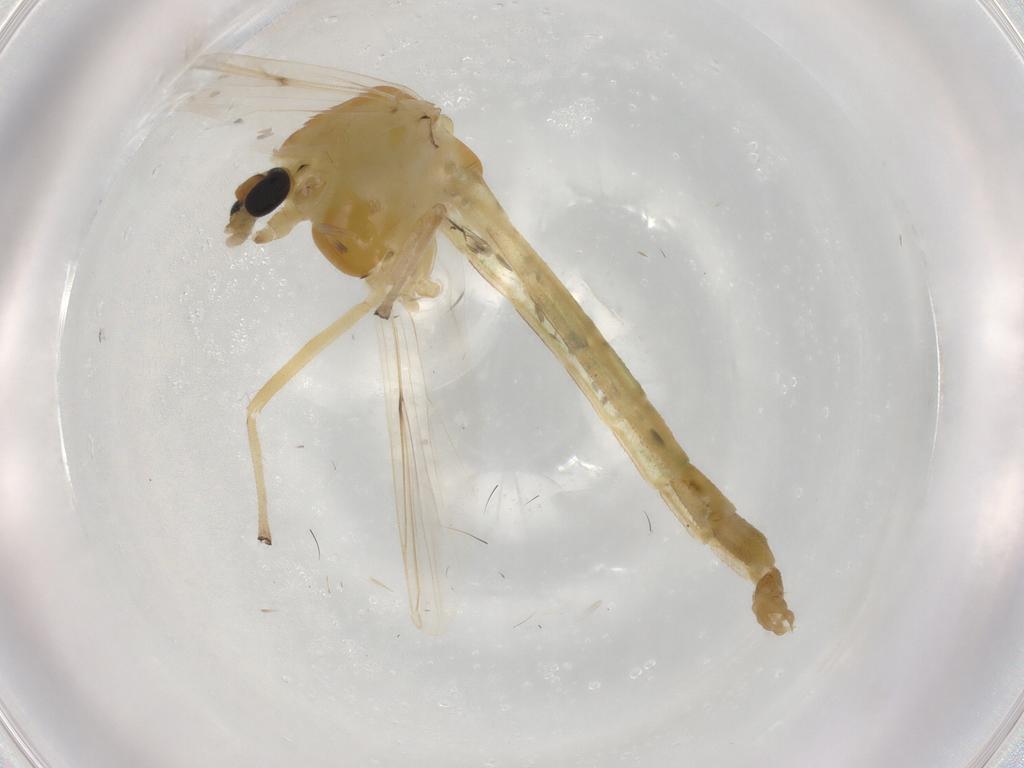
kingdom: Animalia
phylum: Arthropoda
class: Insecta
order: Diptera
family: Chironomidae
